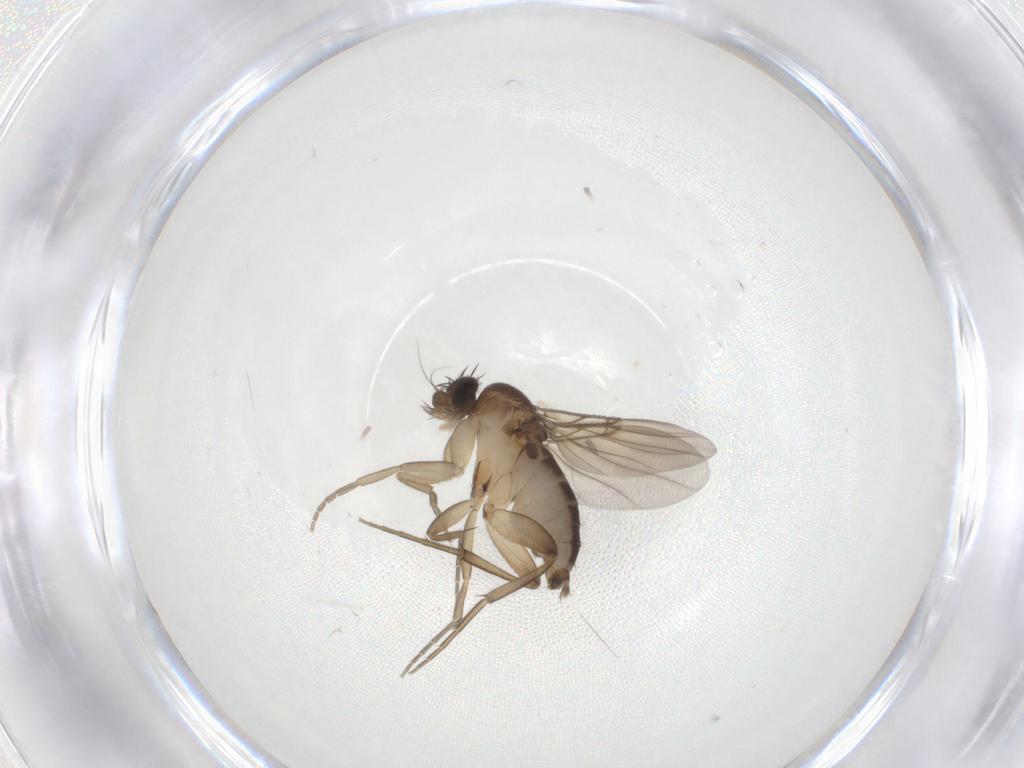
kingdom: Animalia
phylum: Arthropoda
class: Insecta
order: Diptera
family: Phoridae
